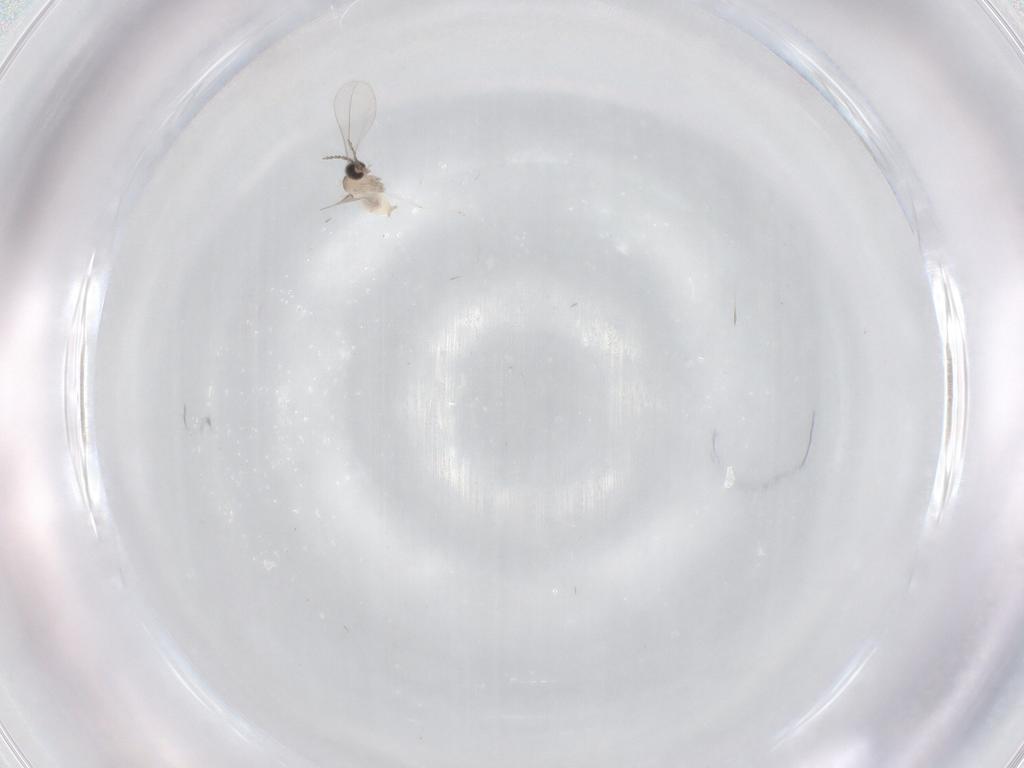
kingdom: Animalia
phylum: Arthropoda
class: Insecta
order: Diptera
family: Cecidomyiidae
